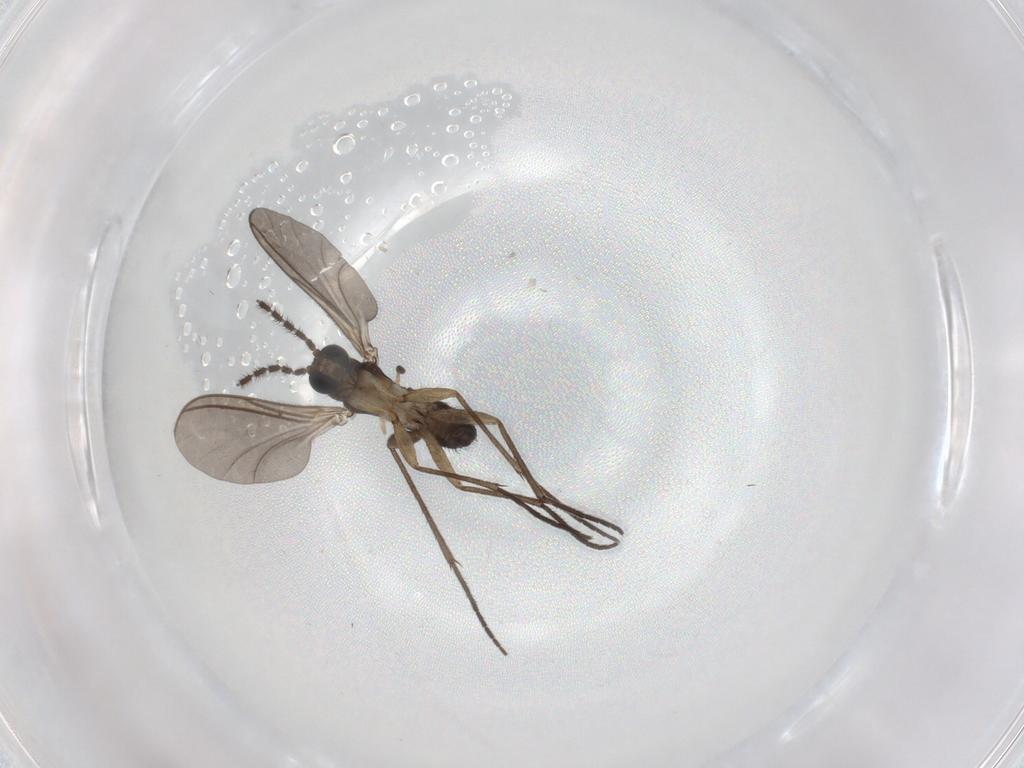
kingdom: Animalia
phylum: Arthropoda
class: Insecta
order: Diptera
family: Sciaridae
